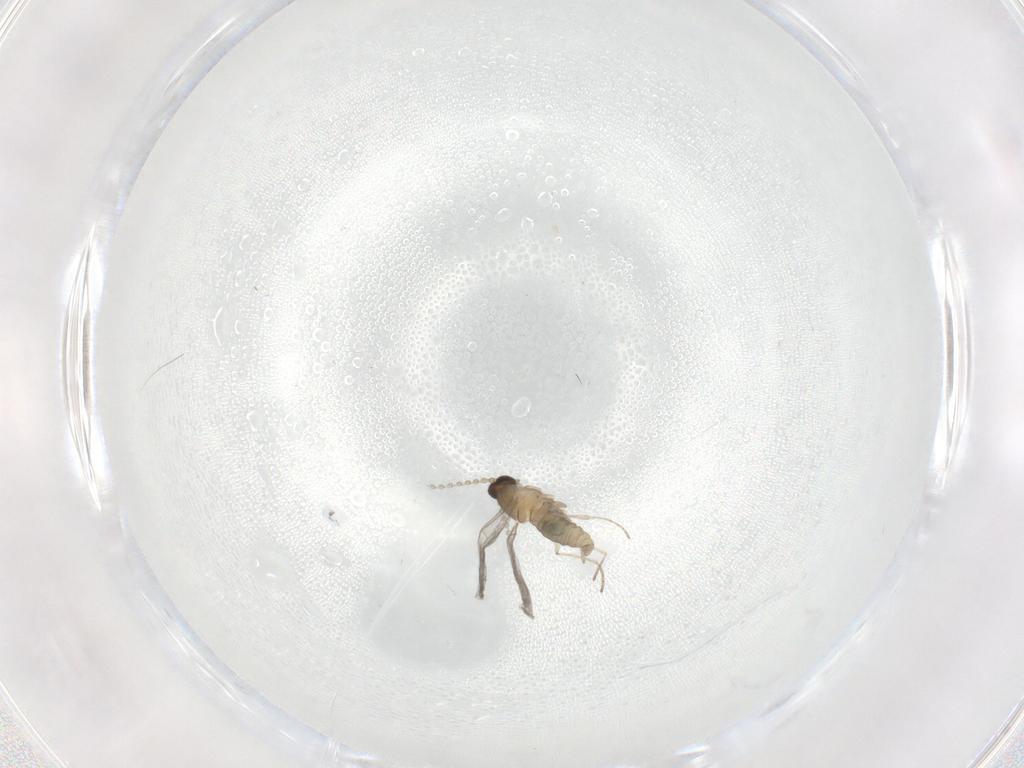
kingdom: Animalia
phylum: Arthropoda
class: Insecta
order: Diptera
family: Cecidomyiidae
